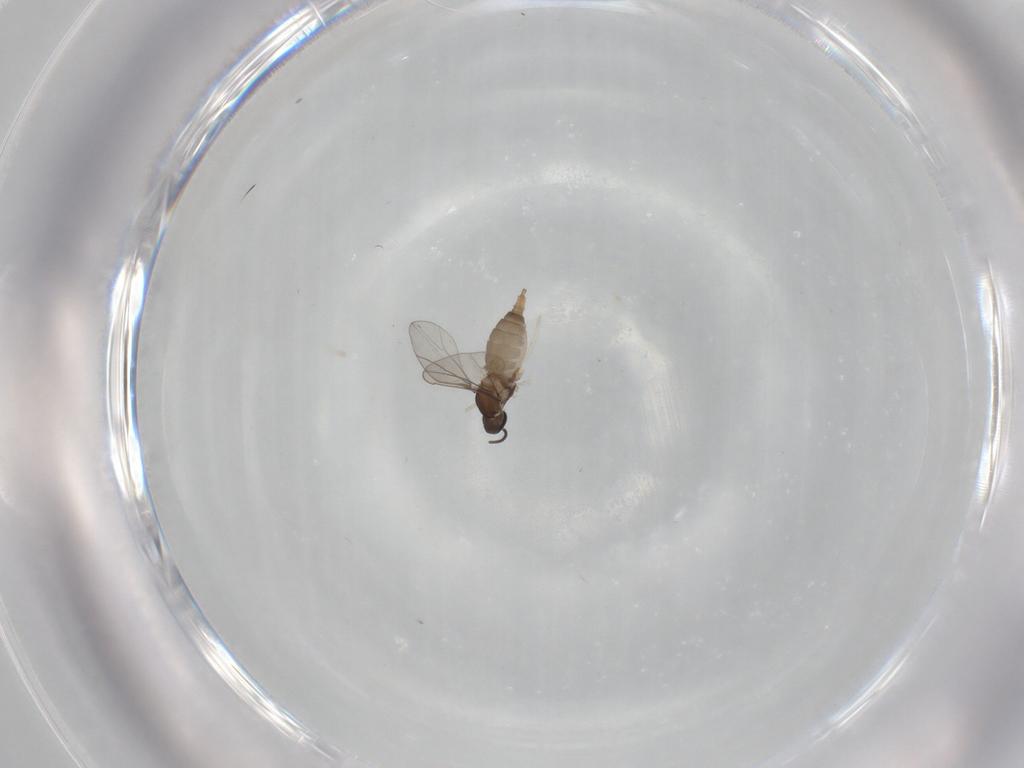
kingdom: Animalia
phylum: Arthropoda
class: Insecta
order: Diptera
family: Cecidomyiidae
